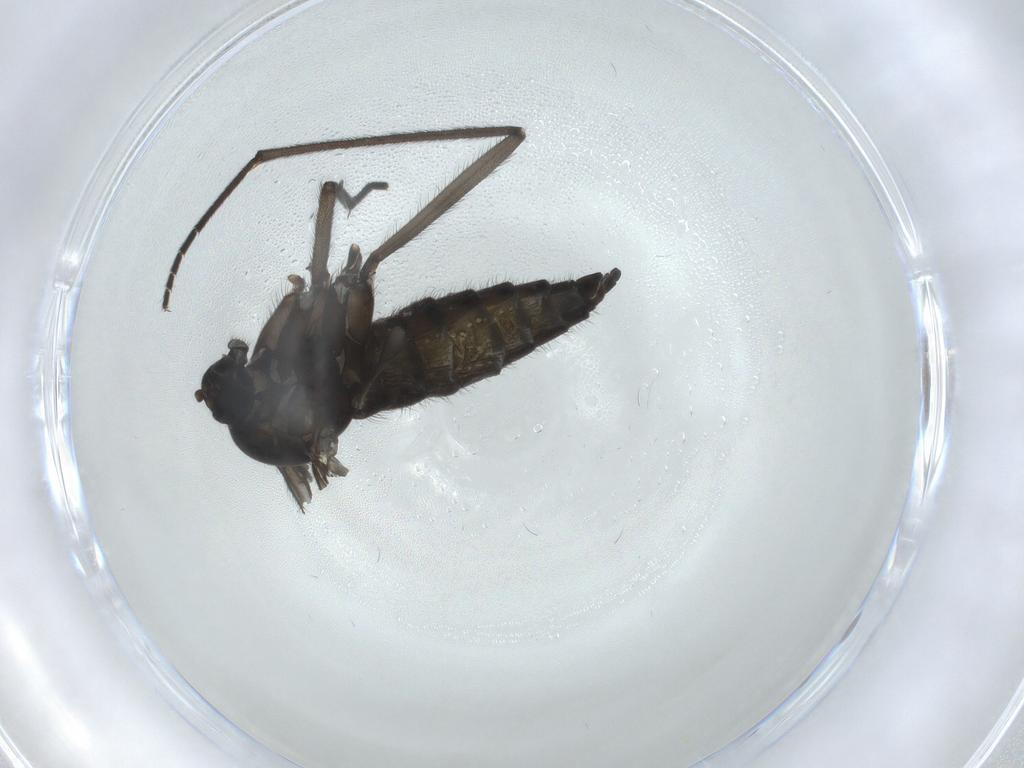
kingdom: Animalia
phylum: Arthropoda
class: Insecta
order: Diptera
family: Sciaridae
